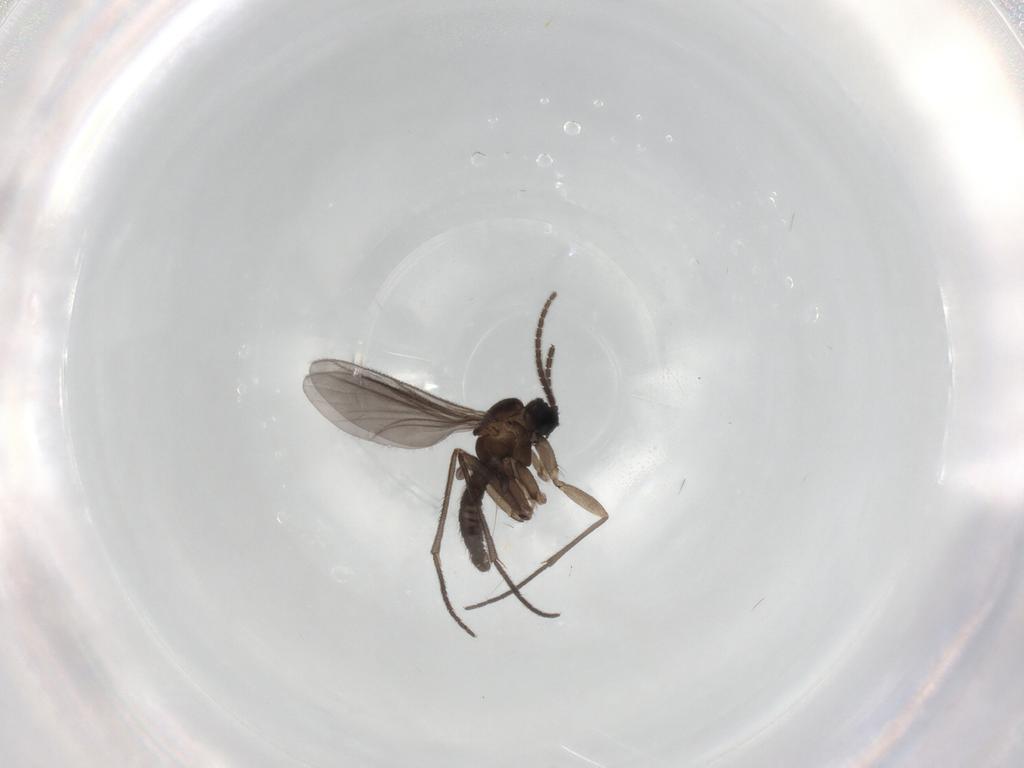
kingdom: Animalia
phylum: Arthropoda
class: Insecta
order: Diptera
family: Sciaridae
